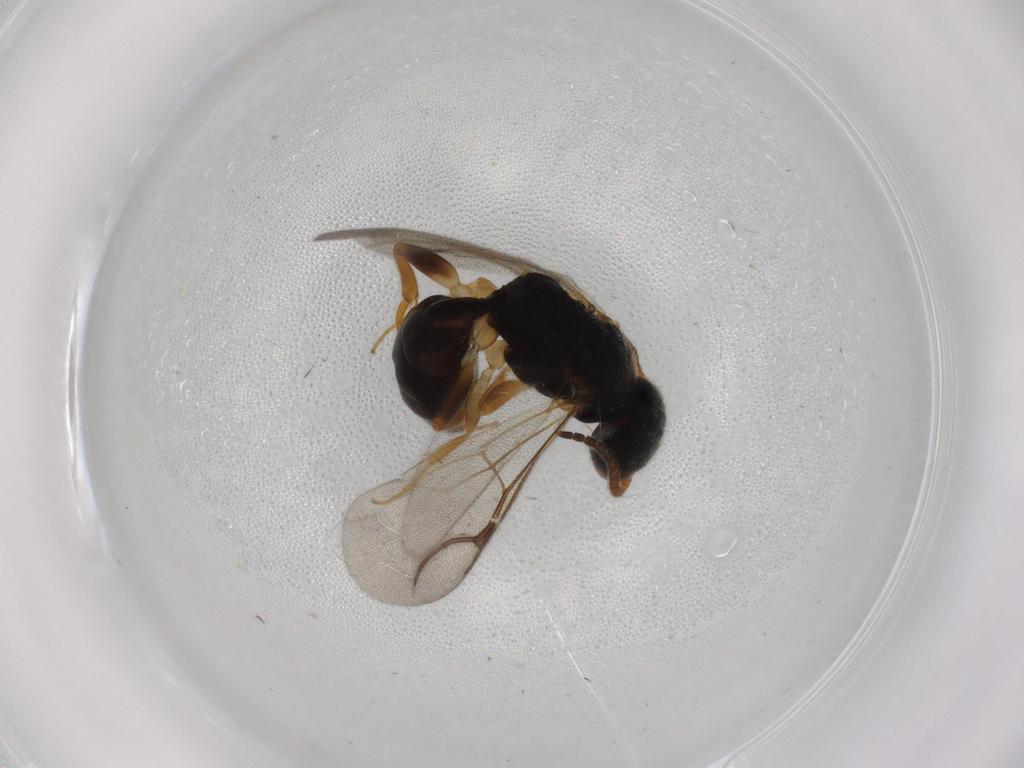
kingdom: Animalia
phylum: Arthropoda
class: Insecta
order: Hymenoptera
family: Bethylidae
